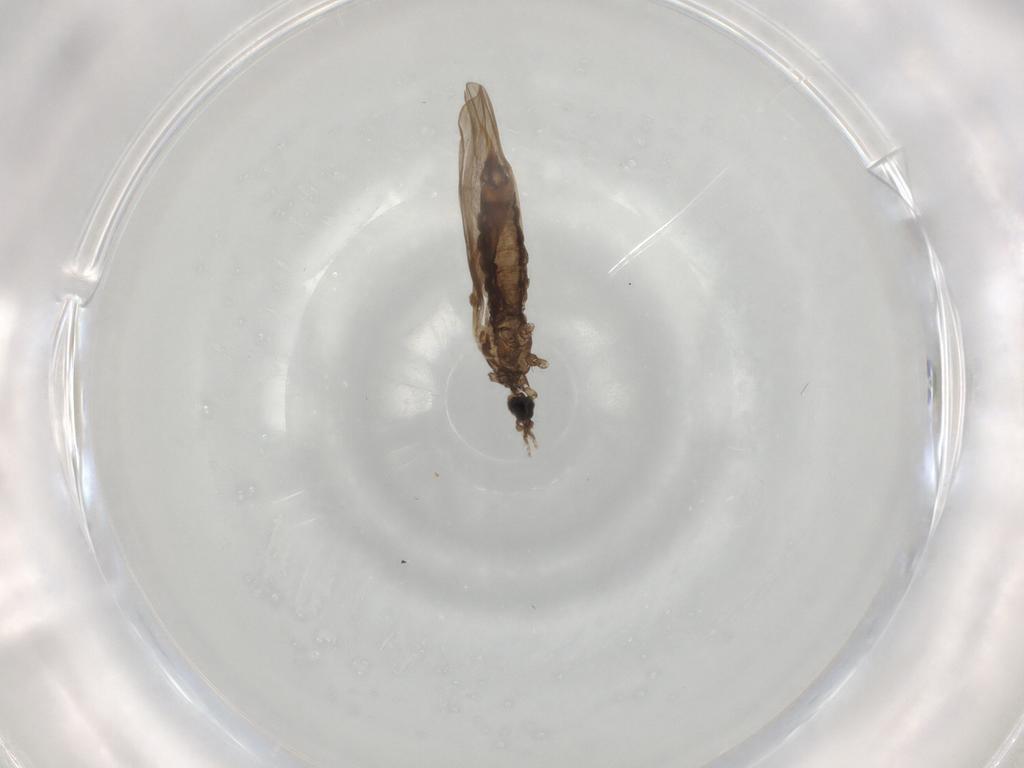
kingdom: Animalia
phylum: Arthropoda
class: Insecta
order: Diptera
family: Limoniidae
